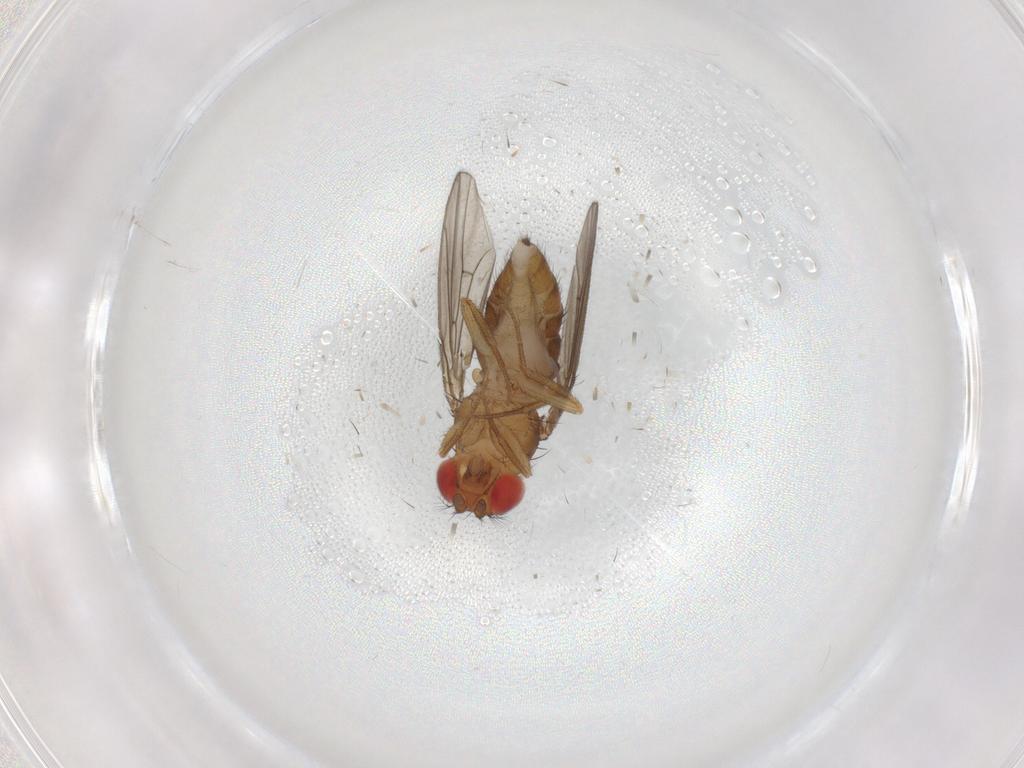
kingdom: Animalia
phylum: Arthropoda
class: Insecta
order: Diptera
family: Drosophilidae
